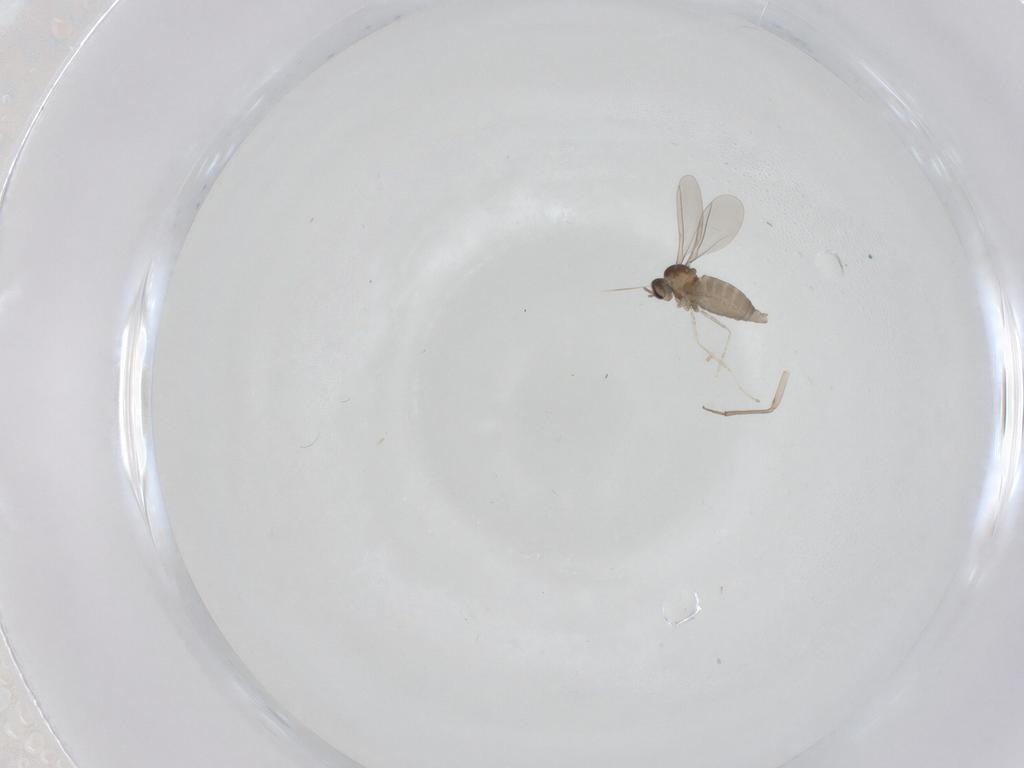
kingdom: Animalia
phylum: Arthropoda
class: Insecta
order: Diptera
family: Cecidomyiidae
